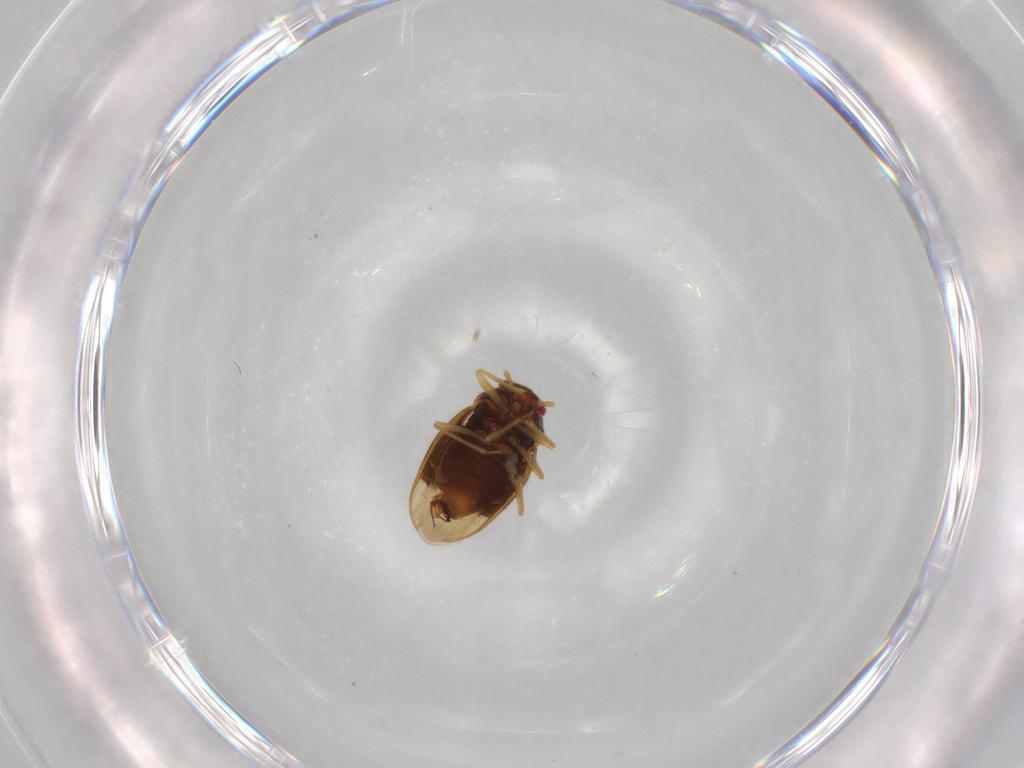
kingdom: Animalia
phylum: Arthropoda
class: Insecta
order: Hemiptera
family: Schizopteridae
